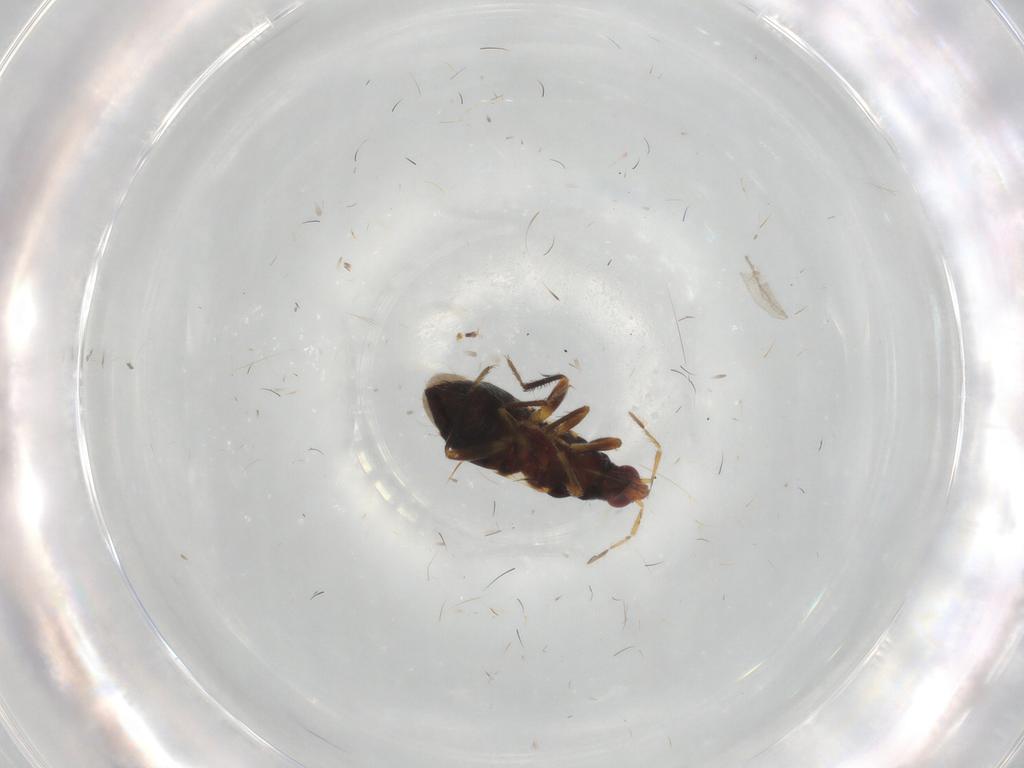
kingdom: Animalia
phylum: Arthropoda
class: Insecta
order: Hemiptera
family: Anthocoridae
